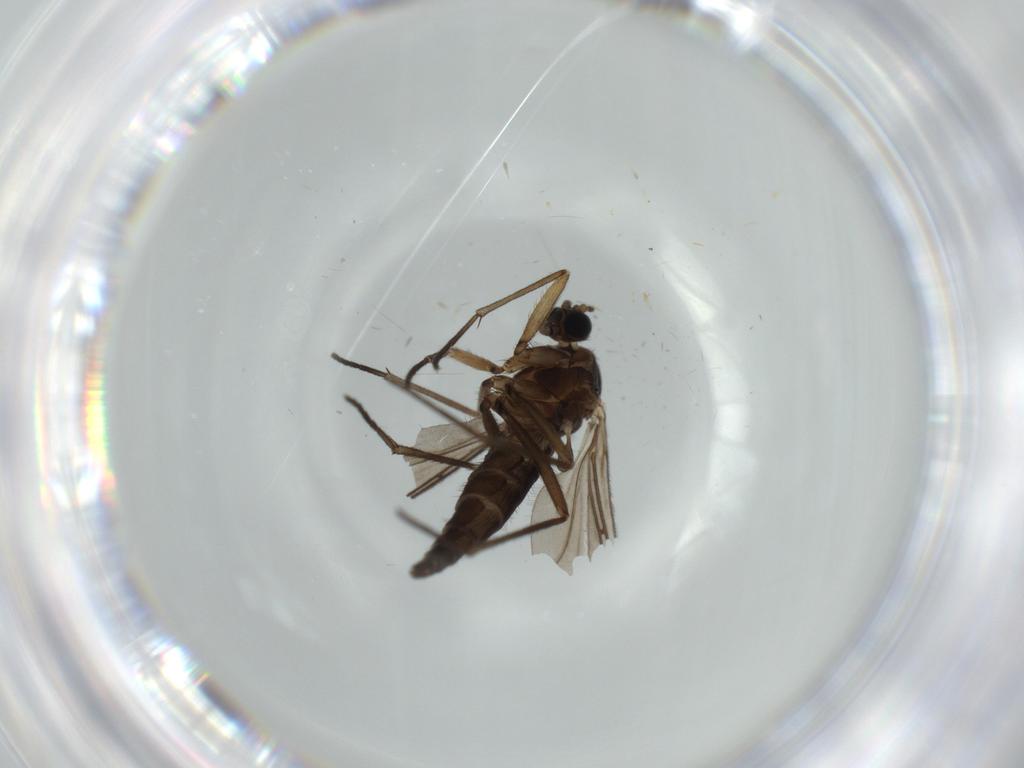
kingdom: Animalia
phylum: Arthropoda
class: Insecta
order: Diptera
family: Sciaridae
